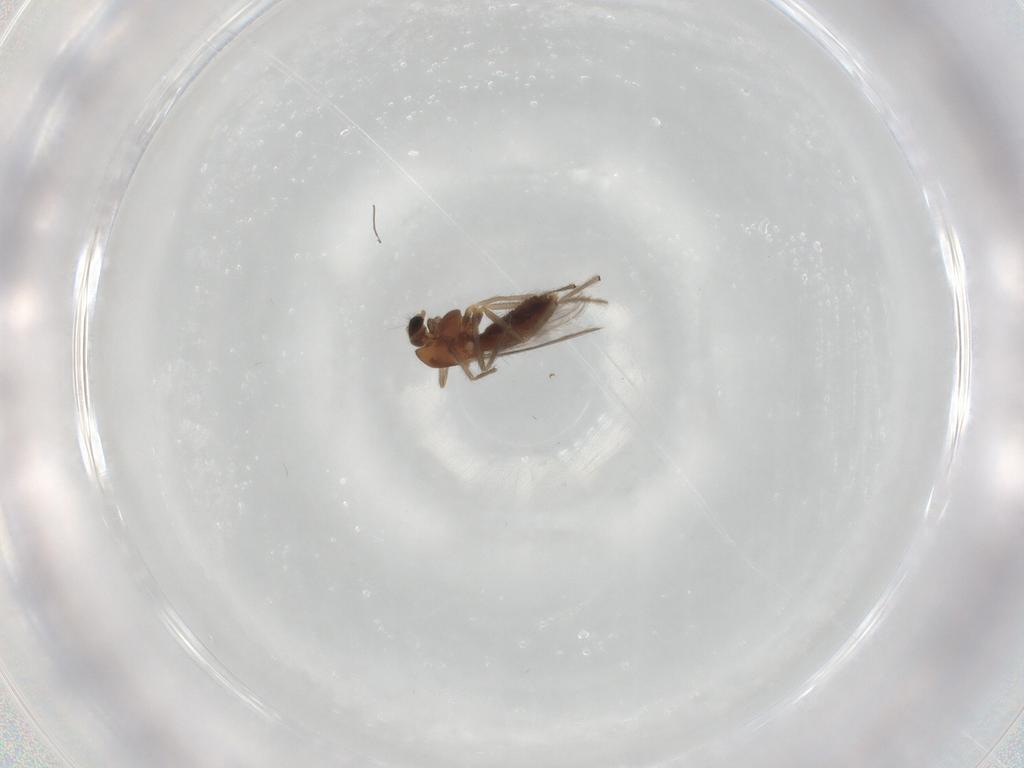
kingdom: Animalia
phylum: Arthropoda
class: Insecta
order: Diptera
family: Chironomidae
